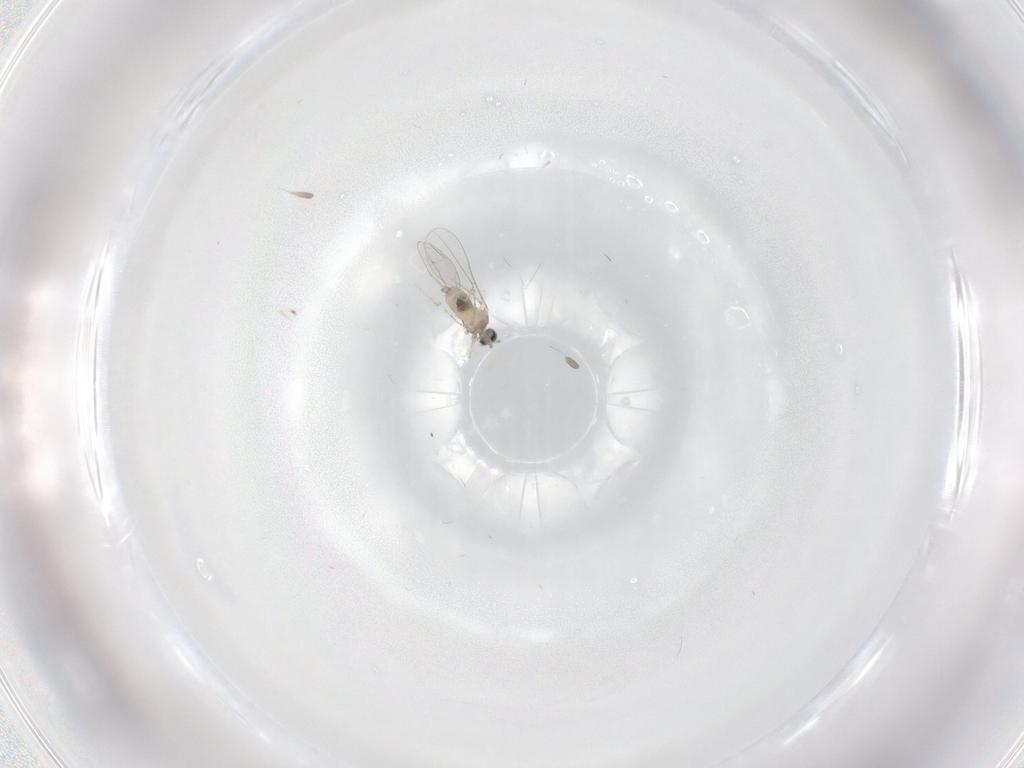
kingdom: Animalia
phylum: Arthropoda
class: Insecta
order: Diptera
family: Cecidomyiidae
